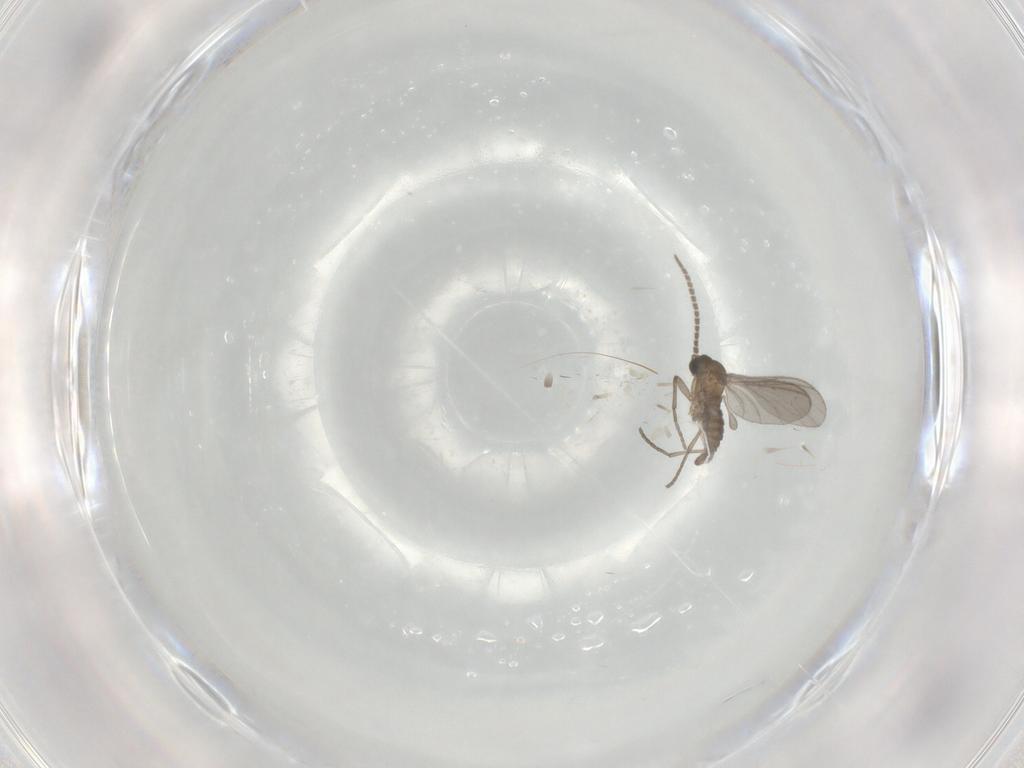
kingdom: Animalia
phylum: Arthropoda
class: Insecta
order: Diptera
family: Sciaridae
